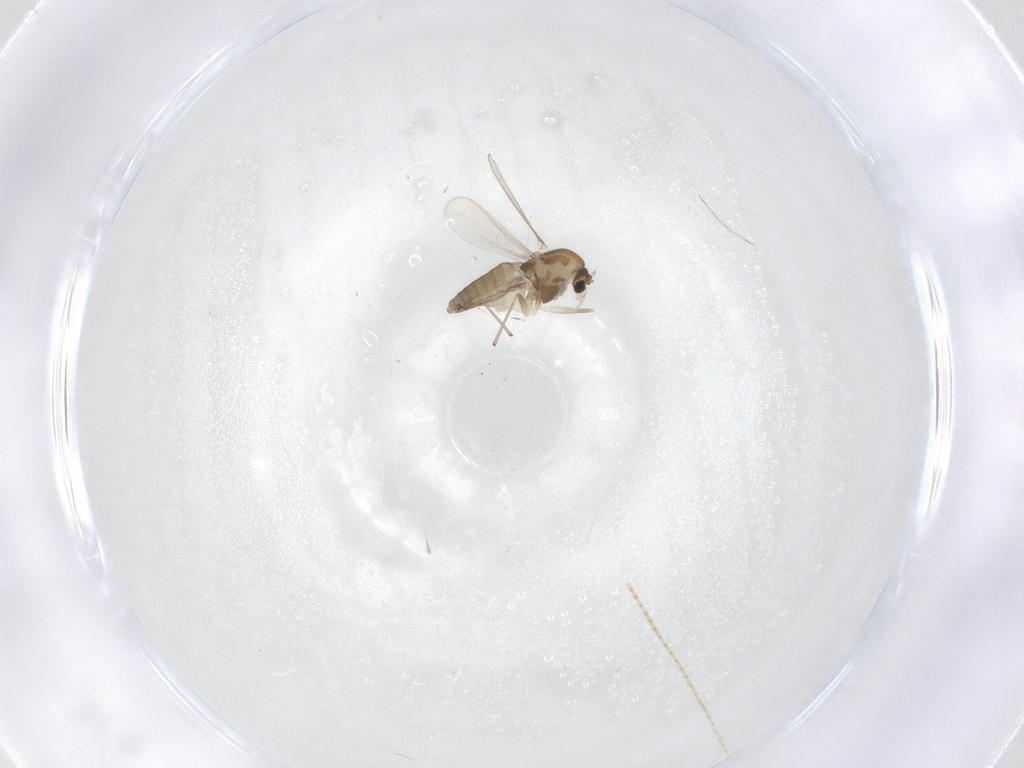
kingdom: Animalia
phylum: Arthropoda
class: Insecta
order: Diptera
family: Chironomidae
